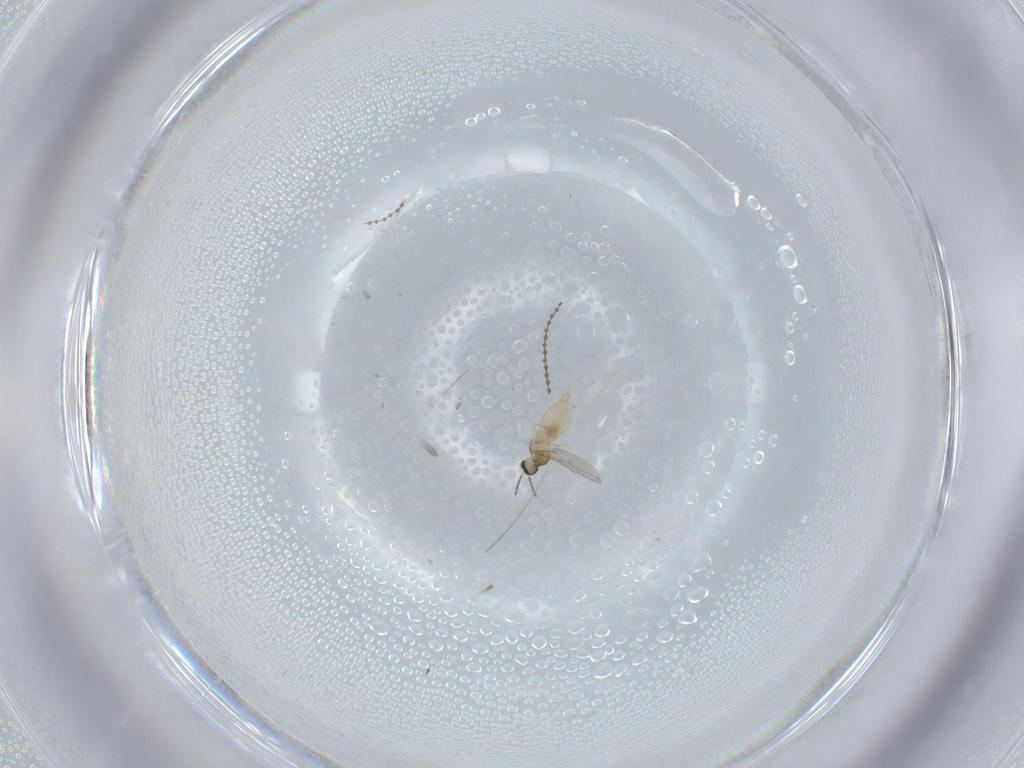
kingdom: Animalia
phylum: Arthropoda
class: Insecta
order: Diptera
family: Cecidomyiidae
